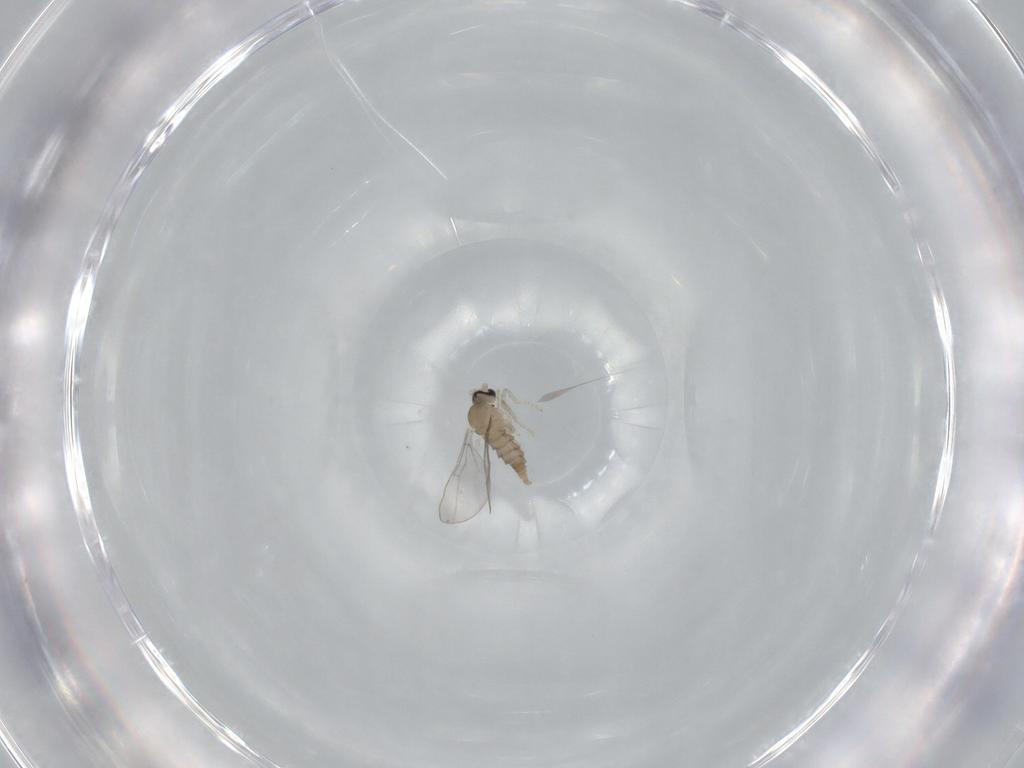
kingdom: Animalia
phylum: Arthropoda
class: Insecta
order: Diptera
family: Cecidomyiidae
